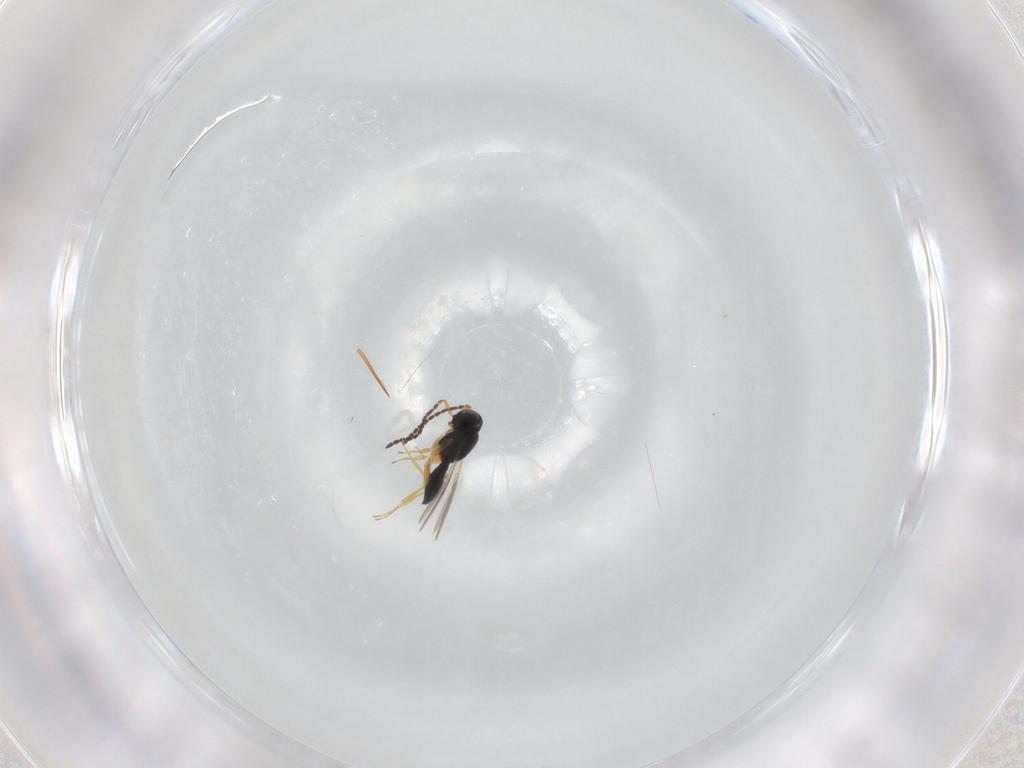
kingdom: Animalia
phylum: Arthropoda
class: Insecta
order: Hymenoptera
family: Scelionidae
